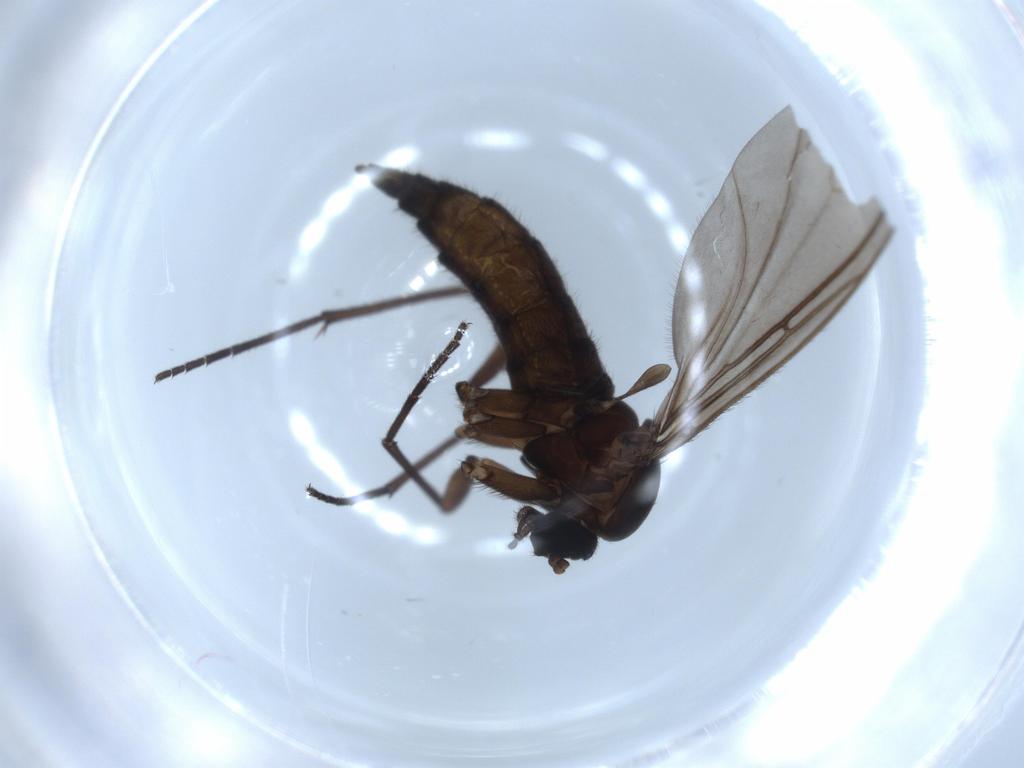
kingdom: Animalia
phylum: Arthropoda
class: Insecta
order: Diptera
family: Sciaridae
